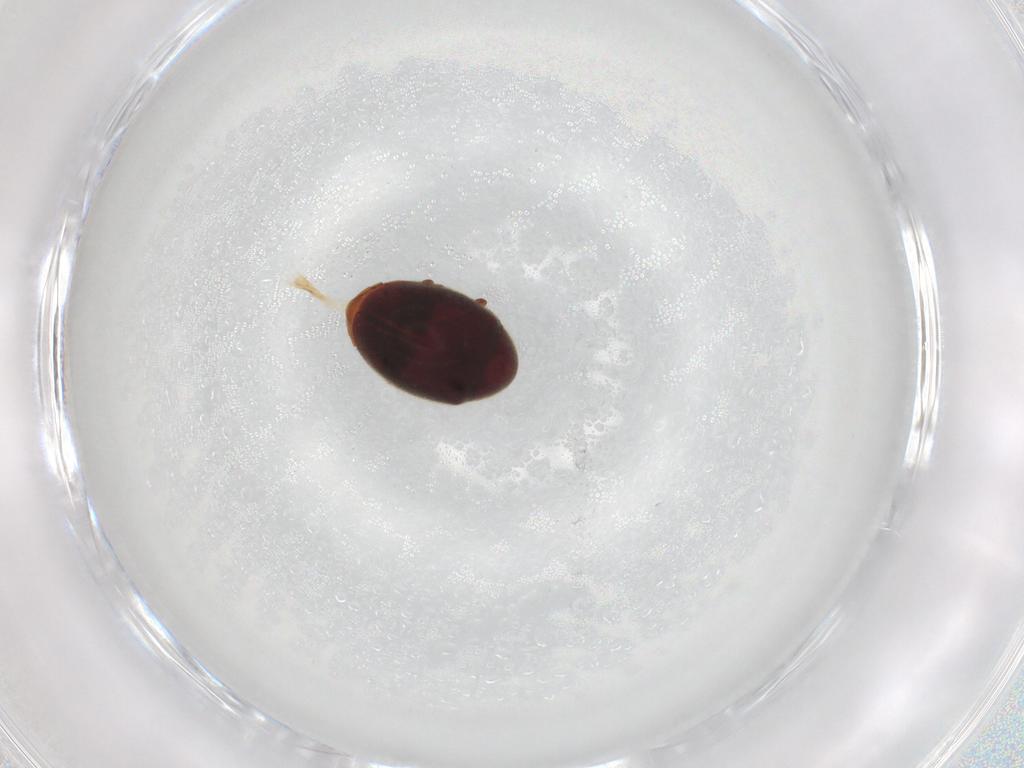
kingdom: Animalia
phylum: Arthropoda
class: Insecta
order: Coleoptera
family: Ptinidae
